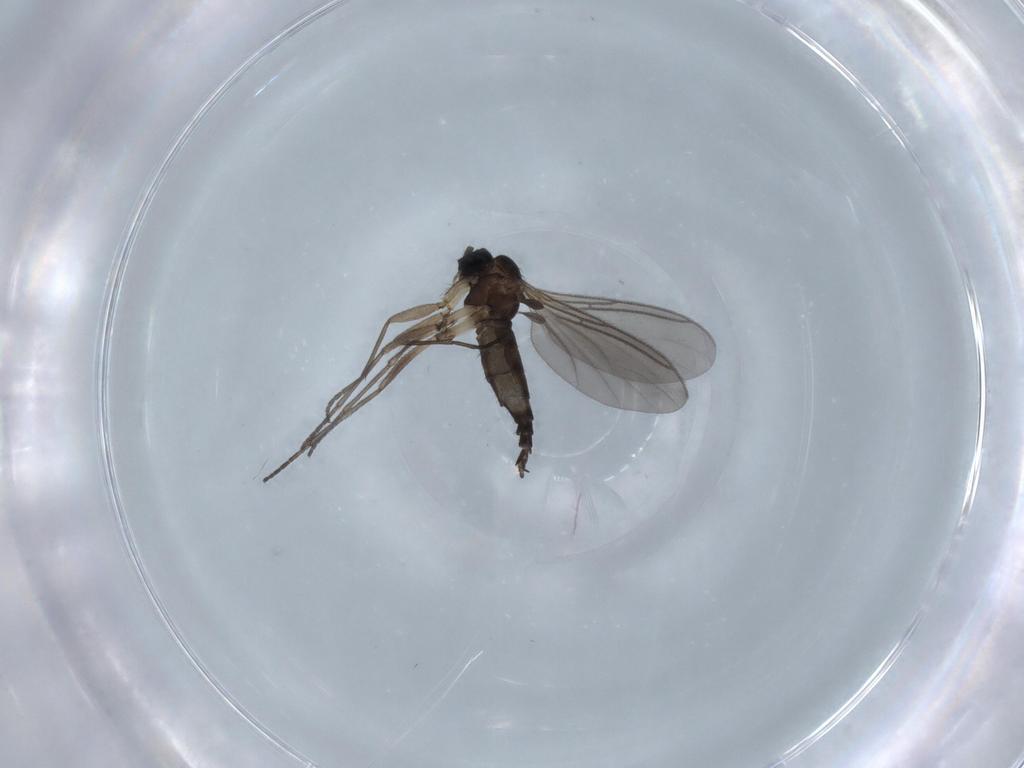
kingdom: Animalia
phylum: Arthropoda
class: Insecta
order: Diptera
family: Sciaridae
